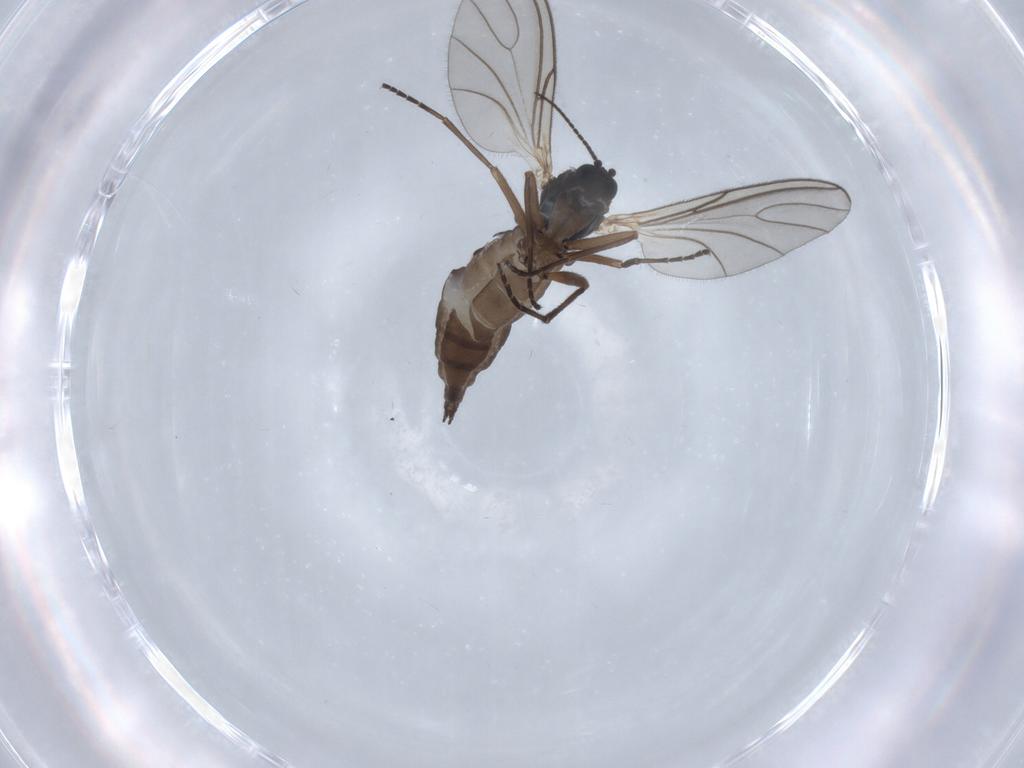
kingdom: Animalia
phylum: Arthropoda
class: Insecta
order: Diptera
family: Sciaridae
